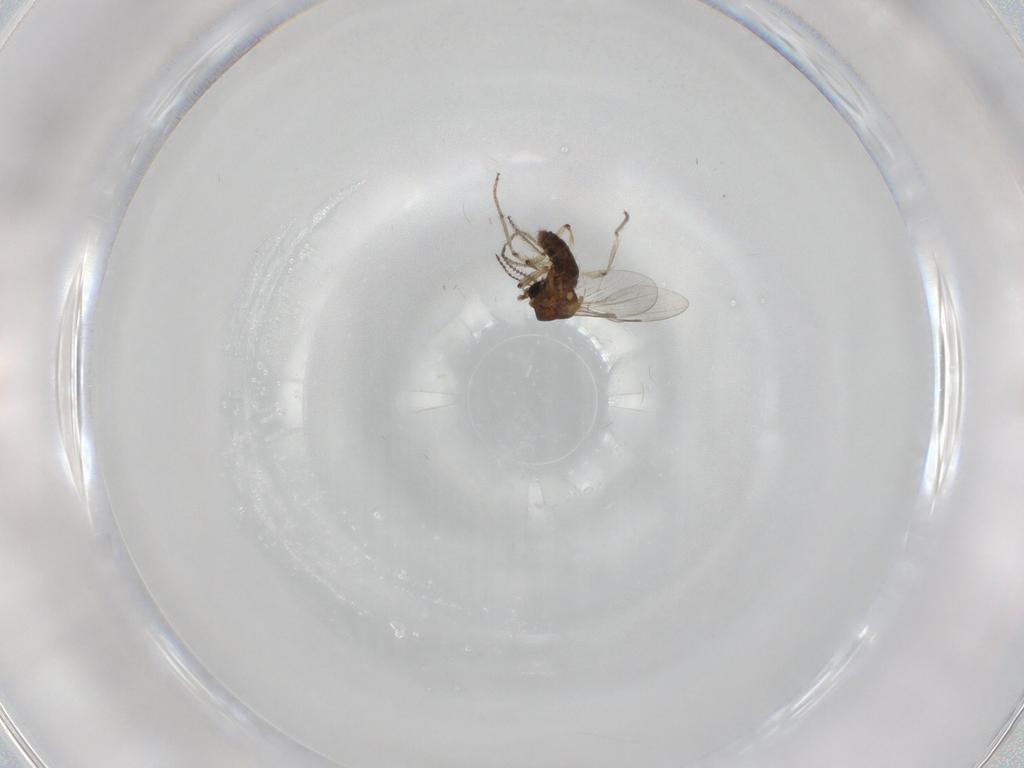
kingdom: Animalia
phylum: Arthropoda
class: Insecta
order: Diptera
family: Ceratopogonidae
